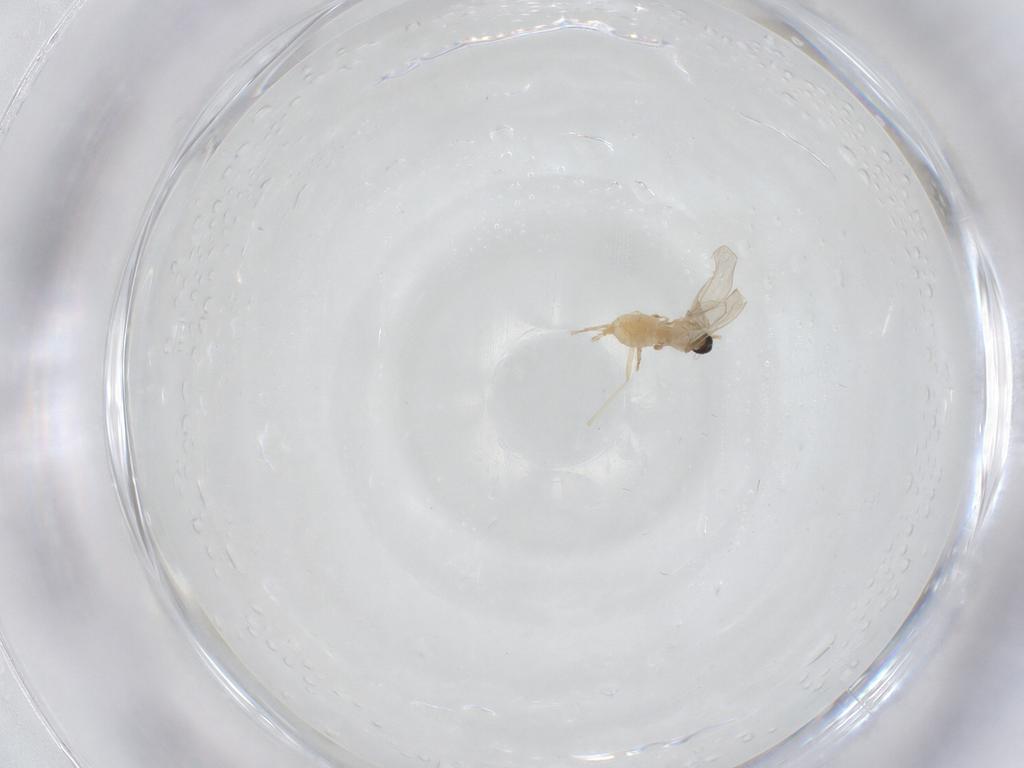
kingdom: Animalia
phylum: Arthropoda
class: Insecta
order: Diptera
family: Cecidomyiidae
